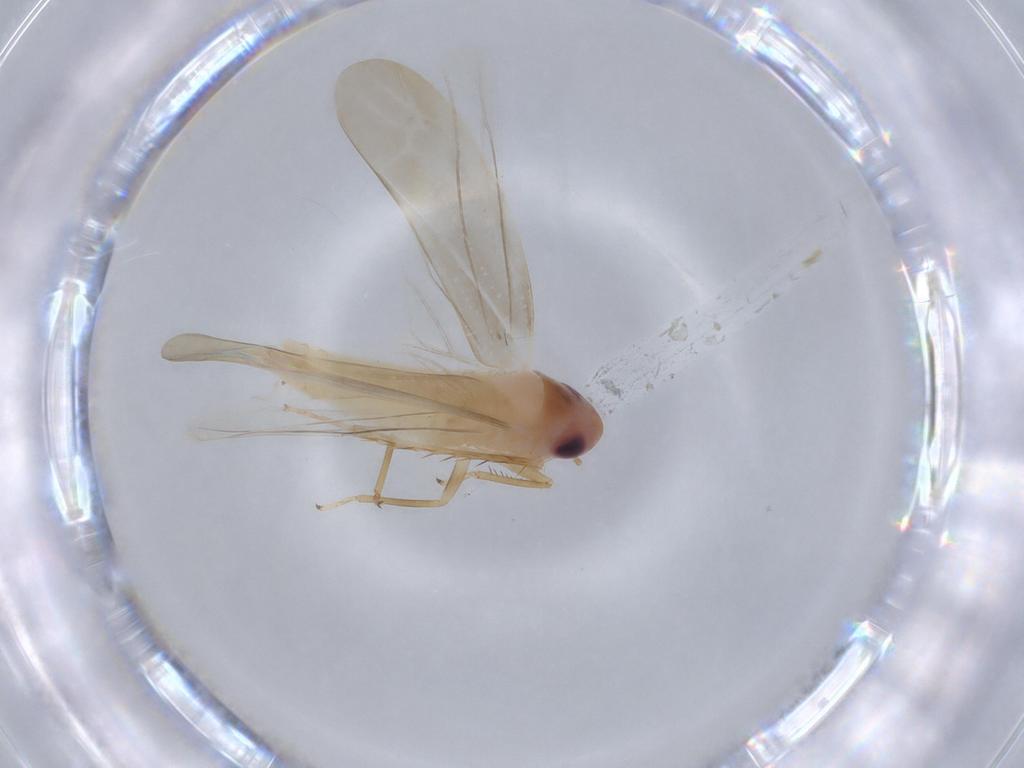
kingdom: Animalia
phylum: Arthropoda
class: Insecta
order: Hemiptera
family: Cicadellidae
